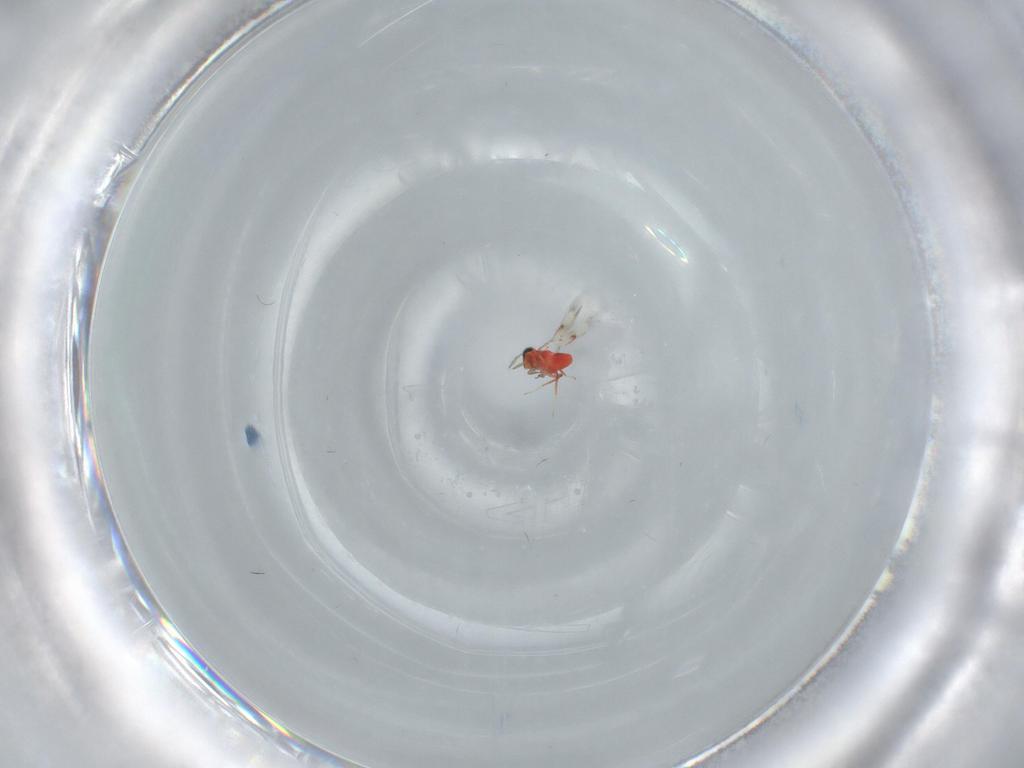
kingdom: Animalia
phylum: Arthropoda
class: Insecta
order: Hymenoptera
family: Trichogrammatidae
